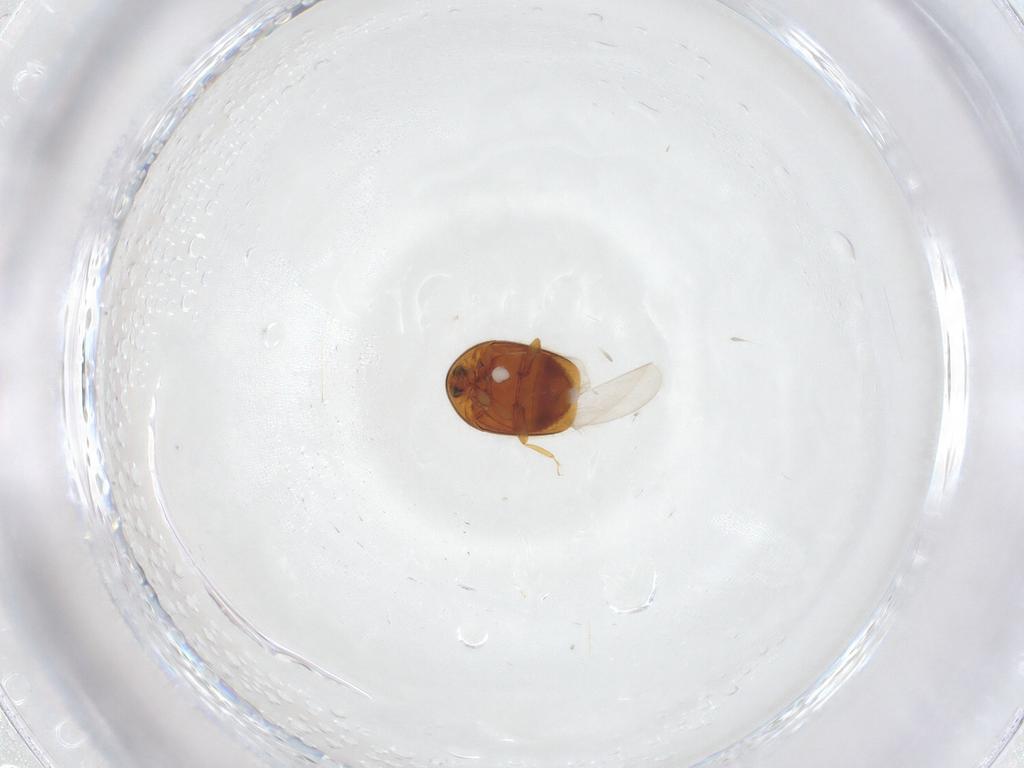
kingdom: Animalia
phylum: Arthropoda
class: Insecta
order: Coleoptera
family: Corylophidae
